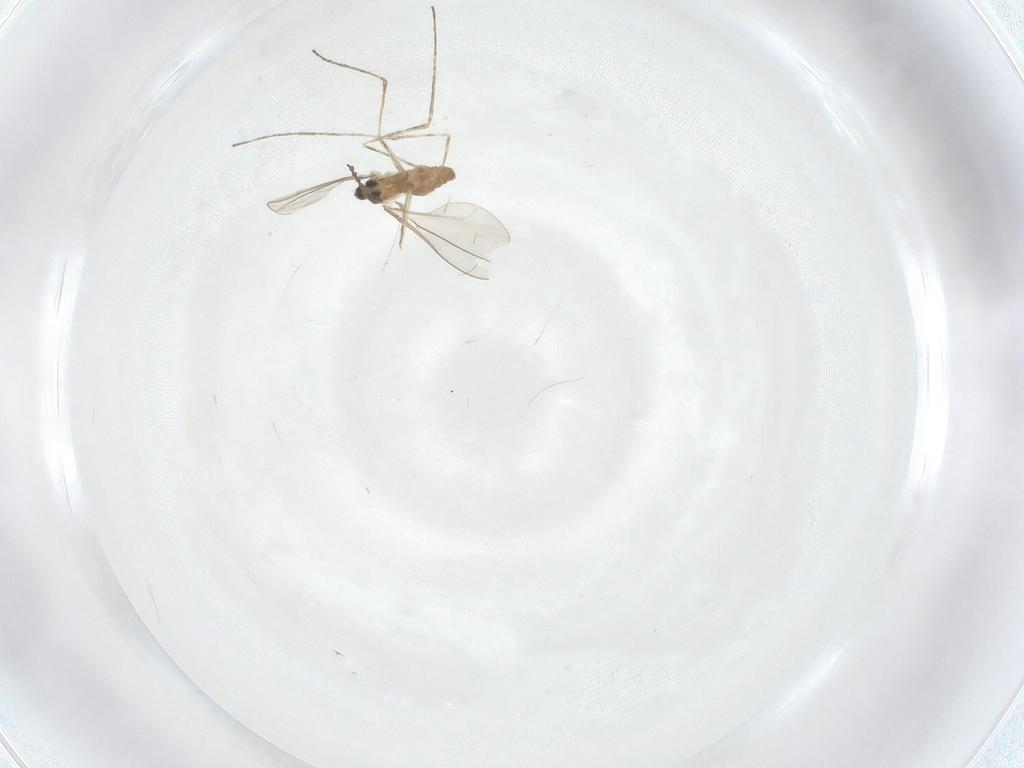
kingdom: Animalia
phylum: Arthropoda
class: Insecta
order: Diptera
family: Cecidomyiidae
